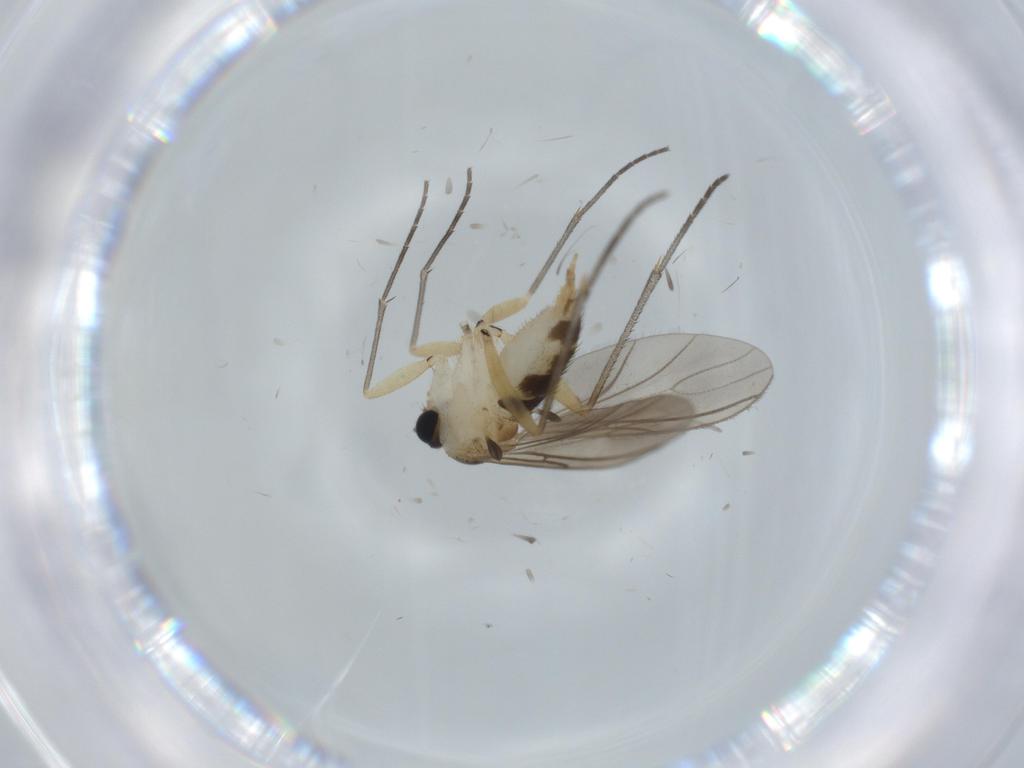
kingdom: Animalia
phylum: Arthropoda
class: Insecta
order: Diptera
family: Sciaridae
